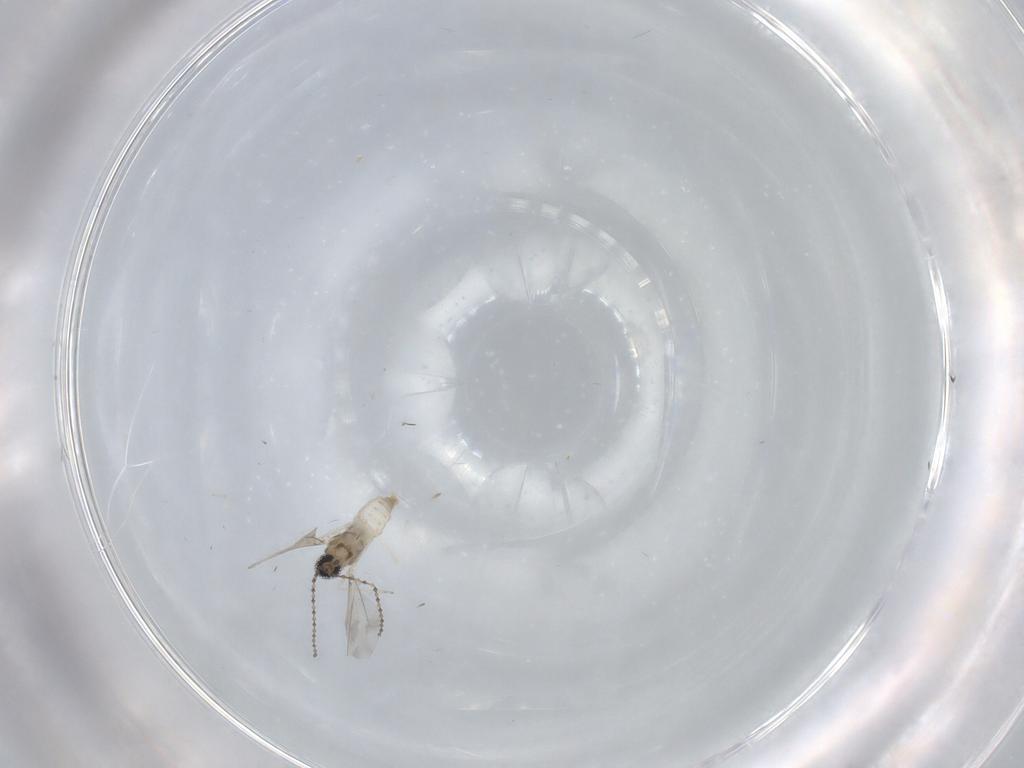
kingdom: Animalia
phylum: Arthropoda
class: Insecta
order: Diptera
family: Cecidomyiidae
